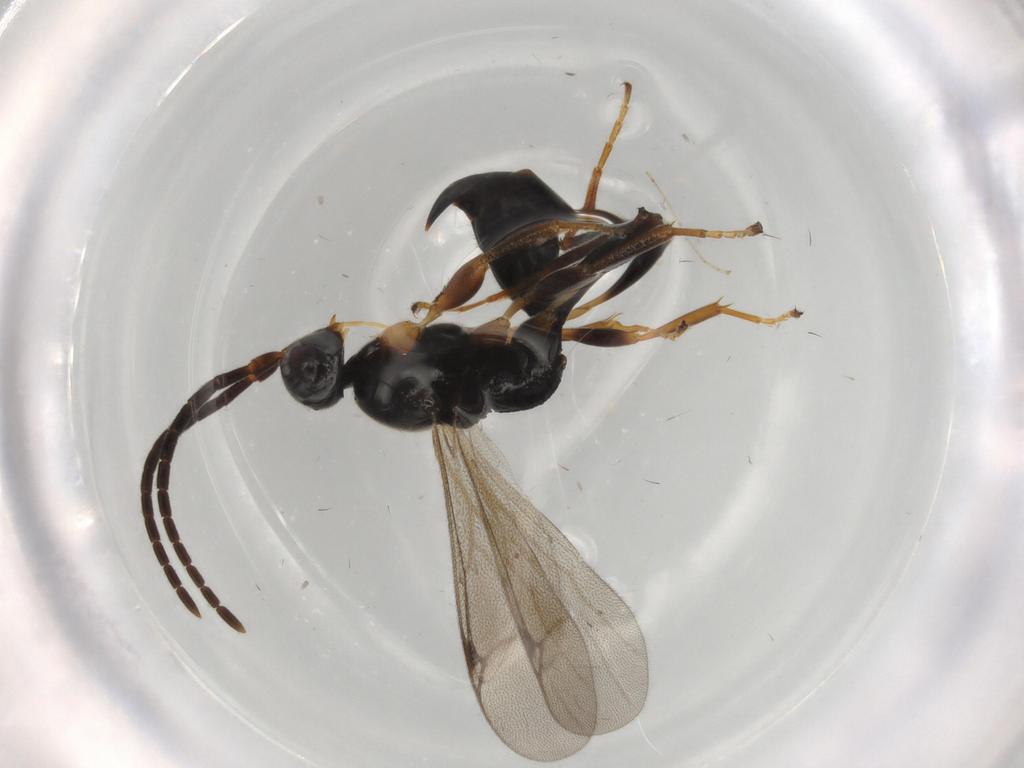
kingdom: Animalia
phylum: Arthropoda
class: Insecta
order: Hymenoptera
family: Proctotrupidae
